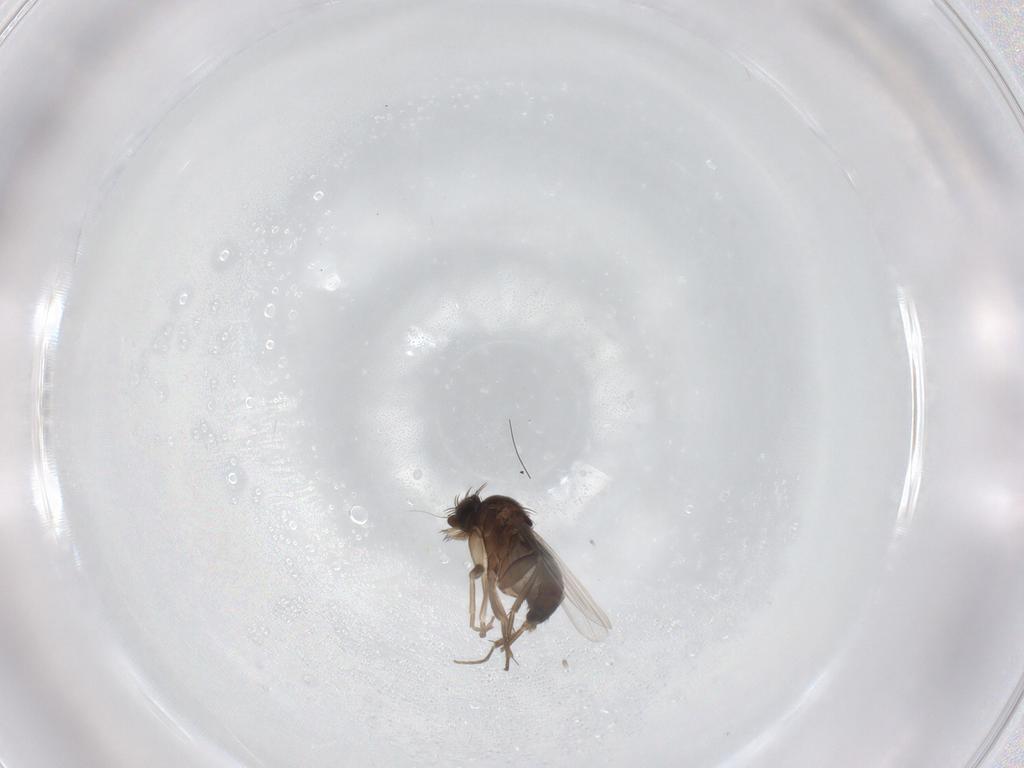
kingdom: Animalia
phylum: Arthropoda
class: Insecta
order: Diptera
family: Phoridae
